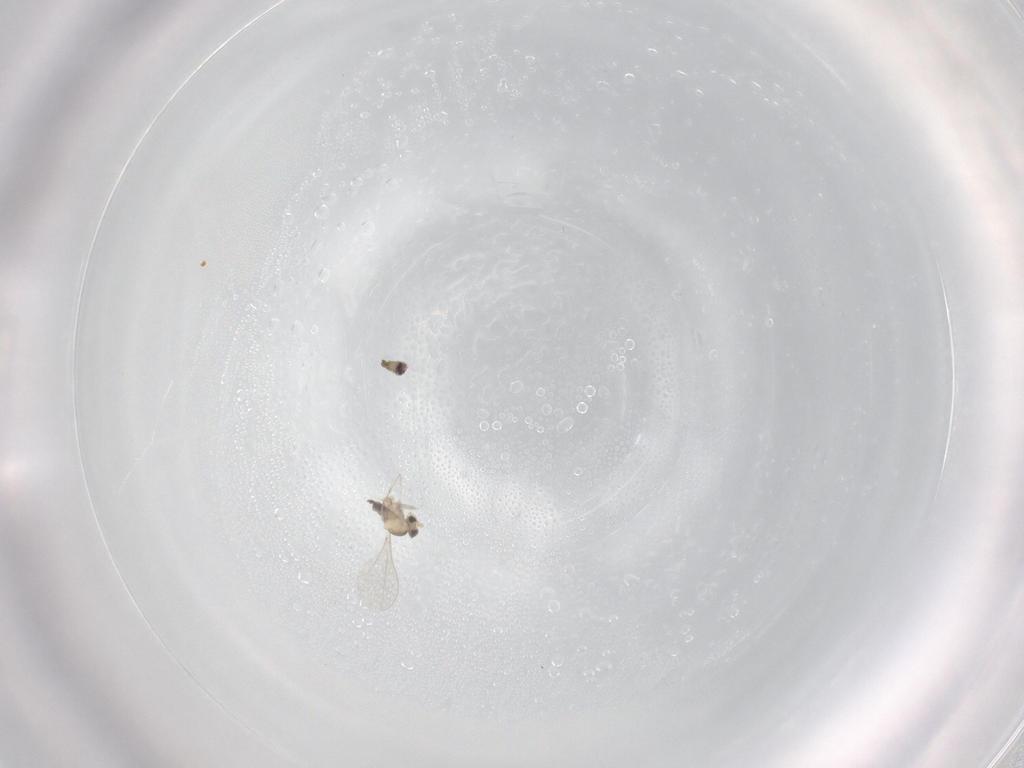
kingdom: Animalia
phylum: Arthropoda
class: Insecta
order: Diptera
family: Cecidomyiidae
